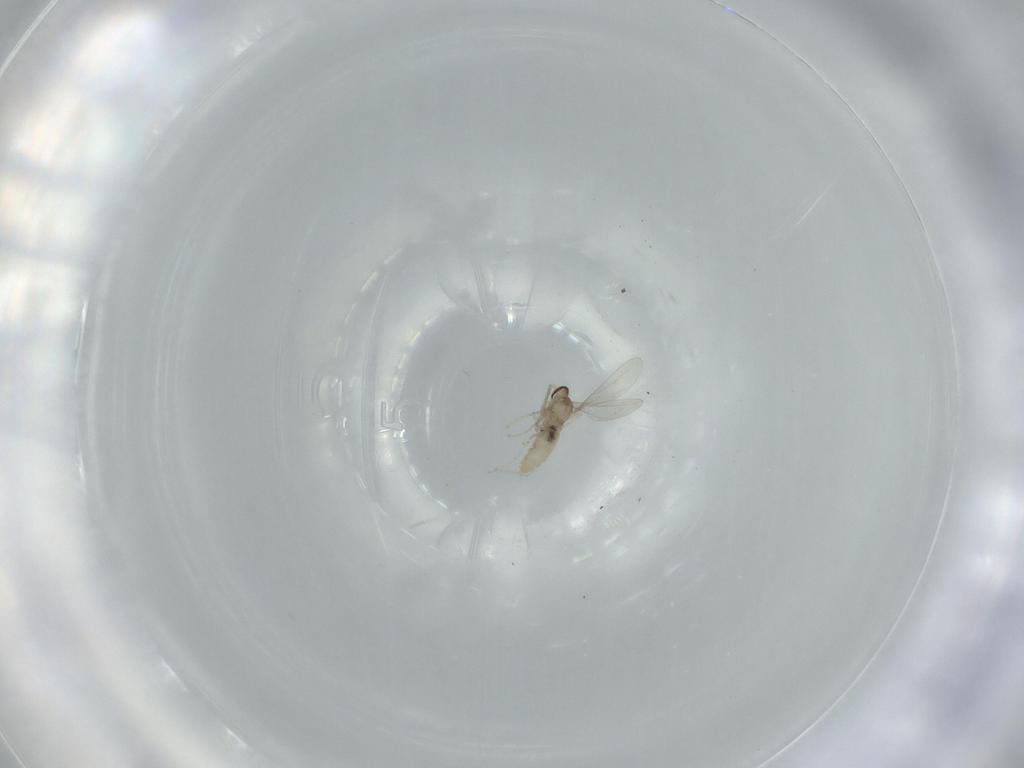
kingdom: Animalia
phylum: Arthropoda
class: Insecta
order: Diptera
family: Sciaridae
